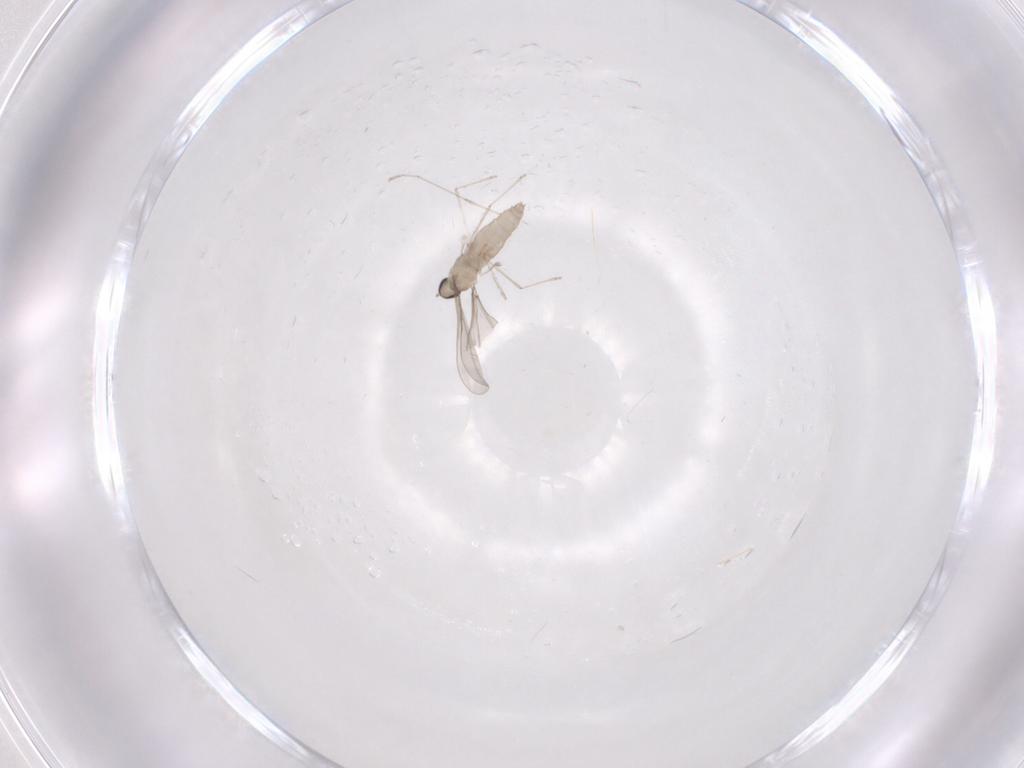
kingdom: Animalia
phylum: Arthropoda
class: Insecta
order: Diptera
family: Cecidomyiidae
